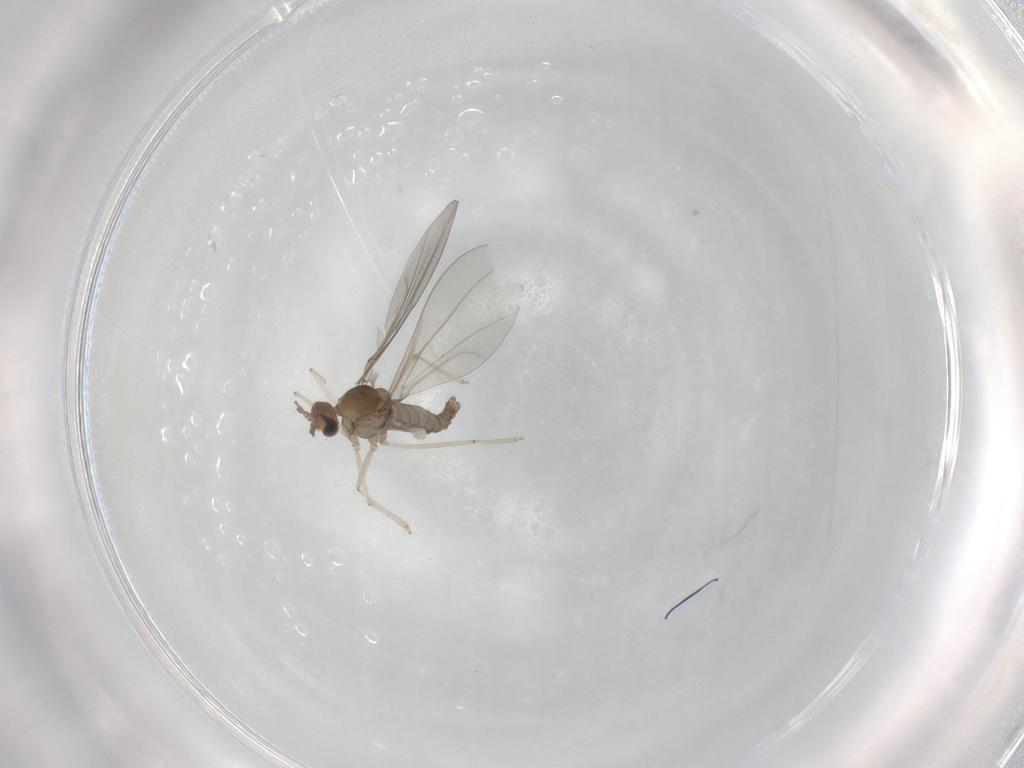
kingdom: Animalia
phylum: Arthropoda
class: Insecta
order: Diptera
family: Cecidomyiidae
